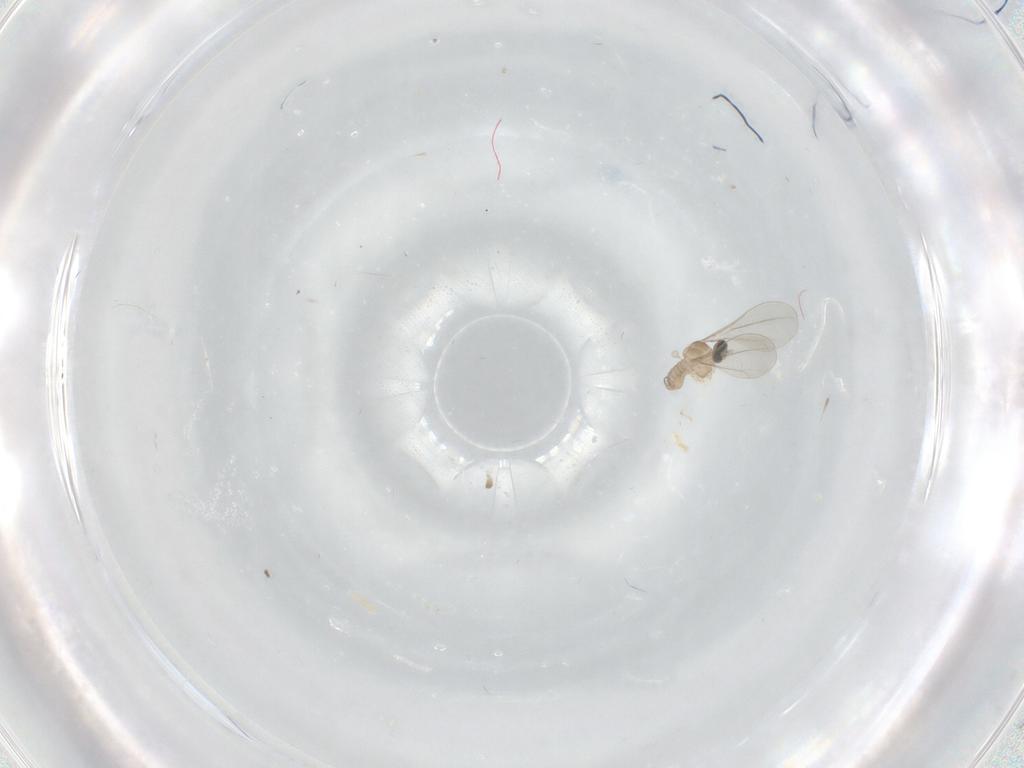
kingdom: Animalia
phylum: Arthropoda
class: Insecta
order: Diptera
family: Cecidomyiidae
